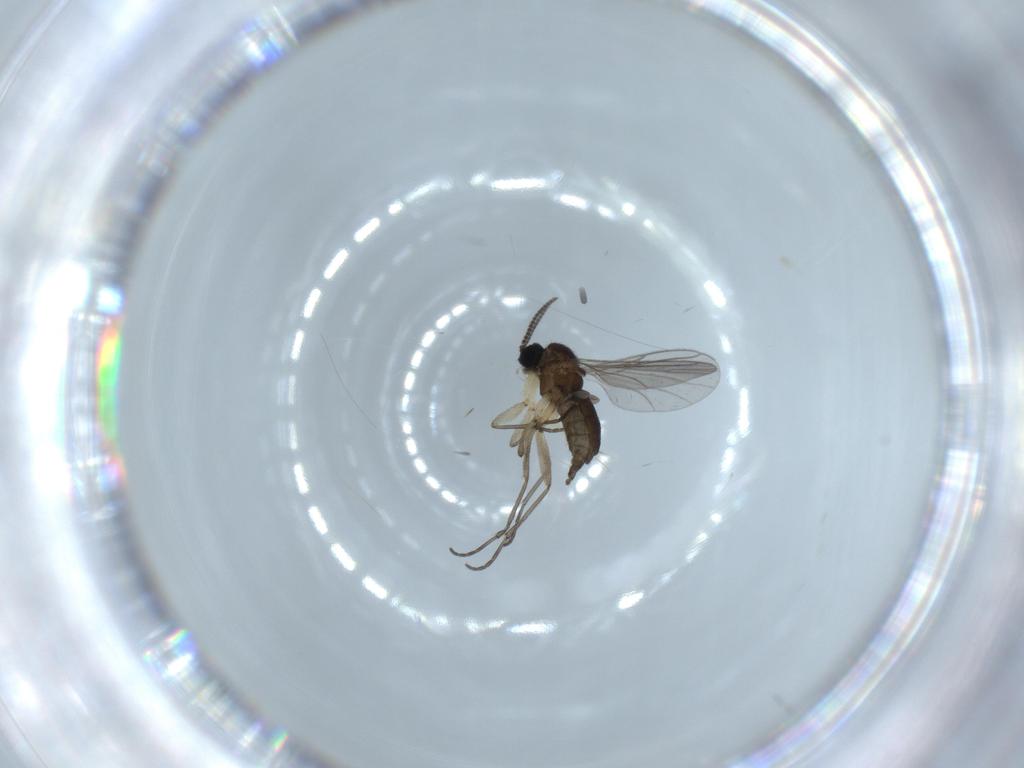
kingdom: Animalia
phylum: Arthropoda
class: Insecta
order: Diptera
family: Sciaridae
